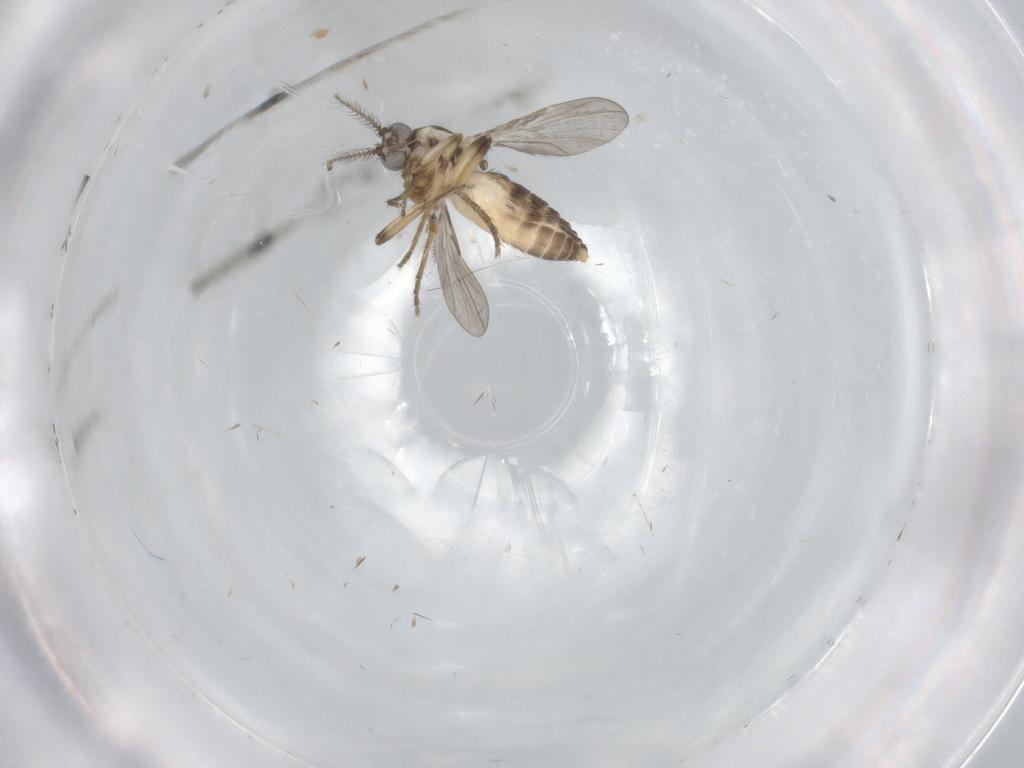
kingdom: Animalia
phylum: Arthropoda
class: Insecta
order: Diptera
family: Ceratopogonidae
